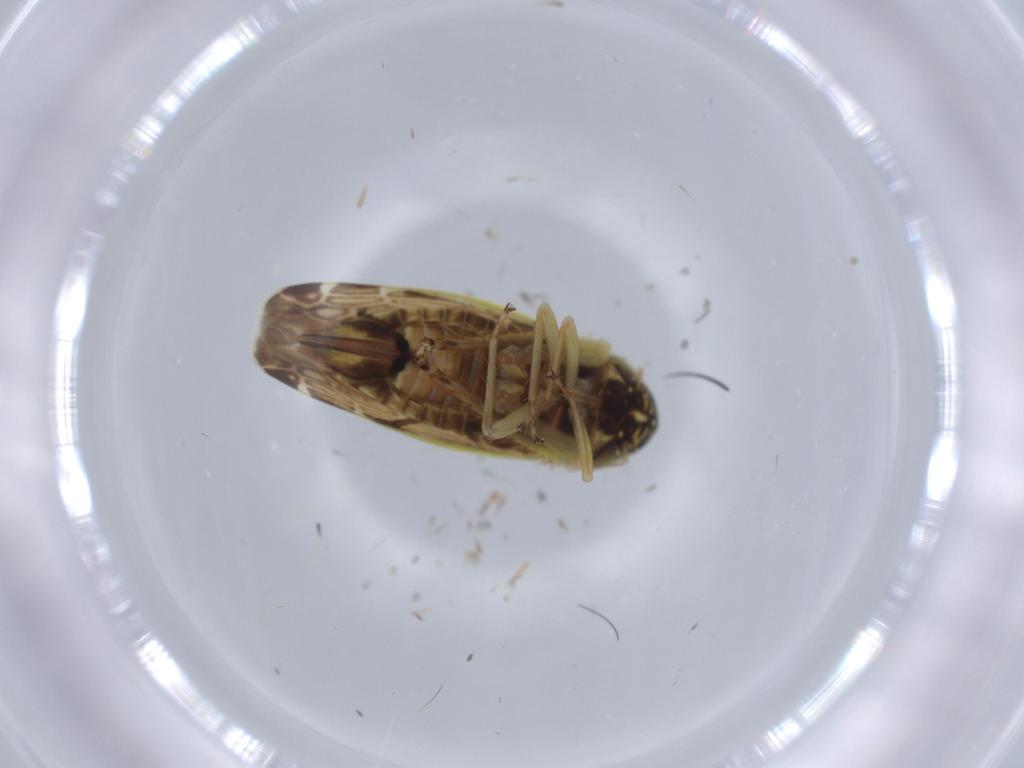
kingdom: Animalia
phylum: Arthropoda
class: Insecta
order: Hemiptera
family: Cicadellidae
